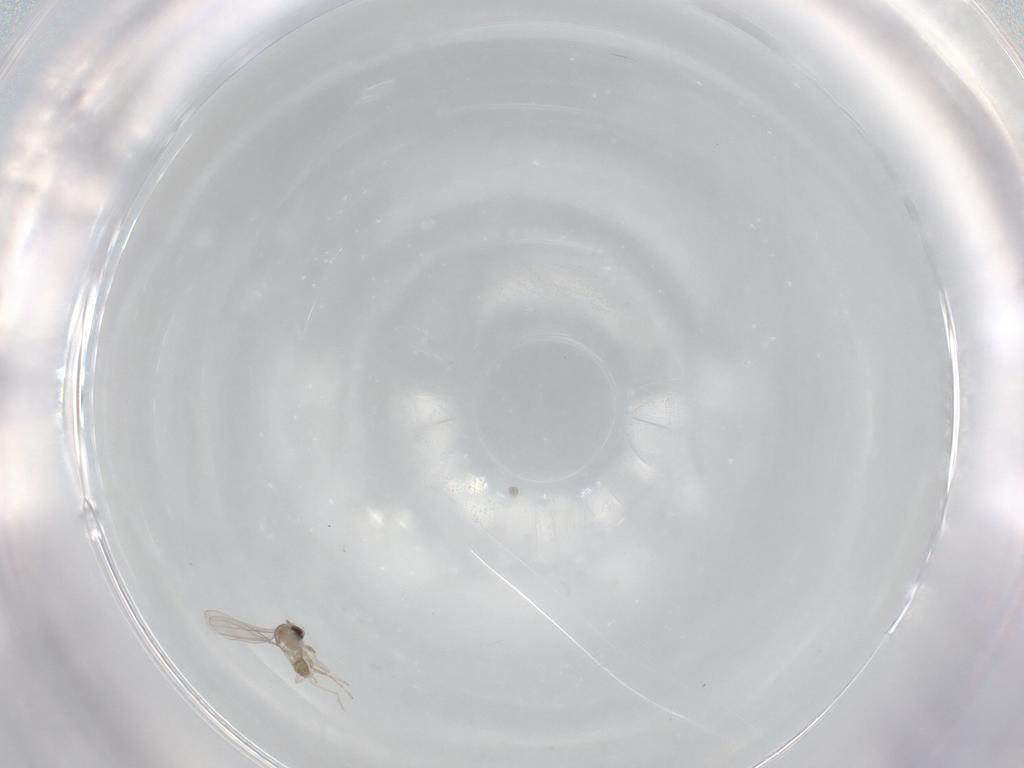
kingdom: Animalia
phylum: Arthropoda
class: Insecta
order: Diptera
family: Cecidomyiidae
